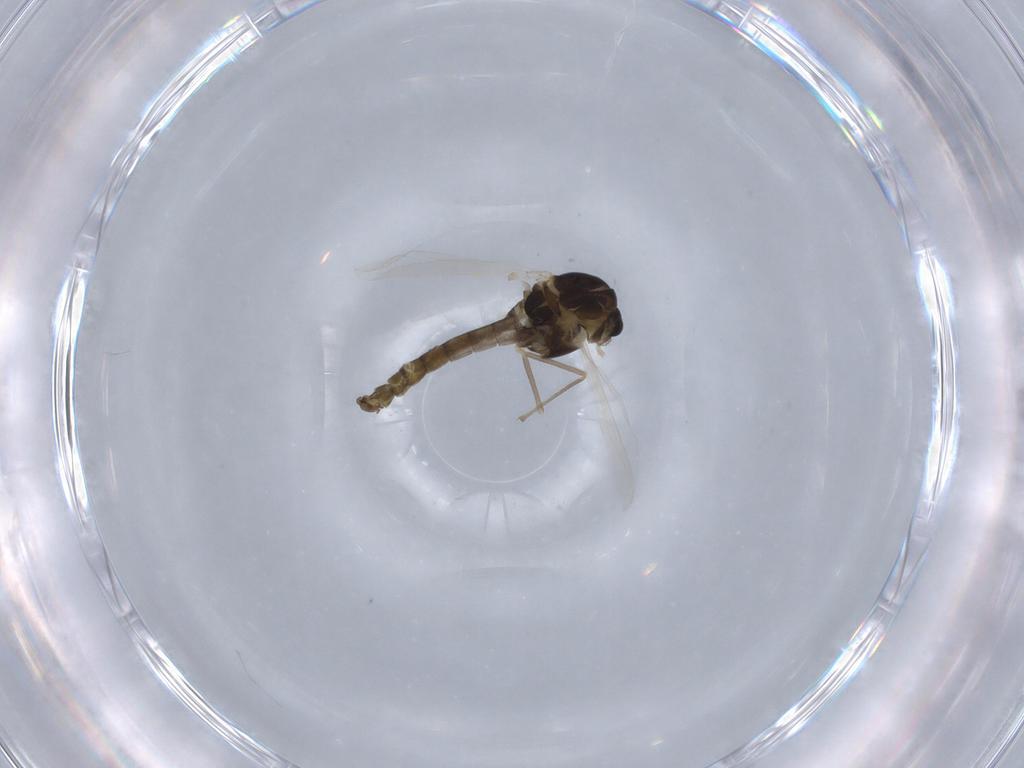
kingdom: Animalia
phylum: Arthropoda
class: Insecta
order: Diptera
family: Chironomidae
